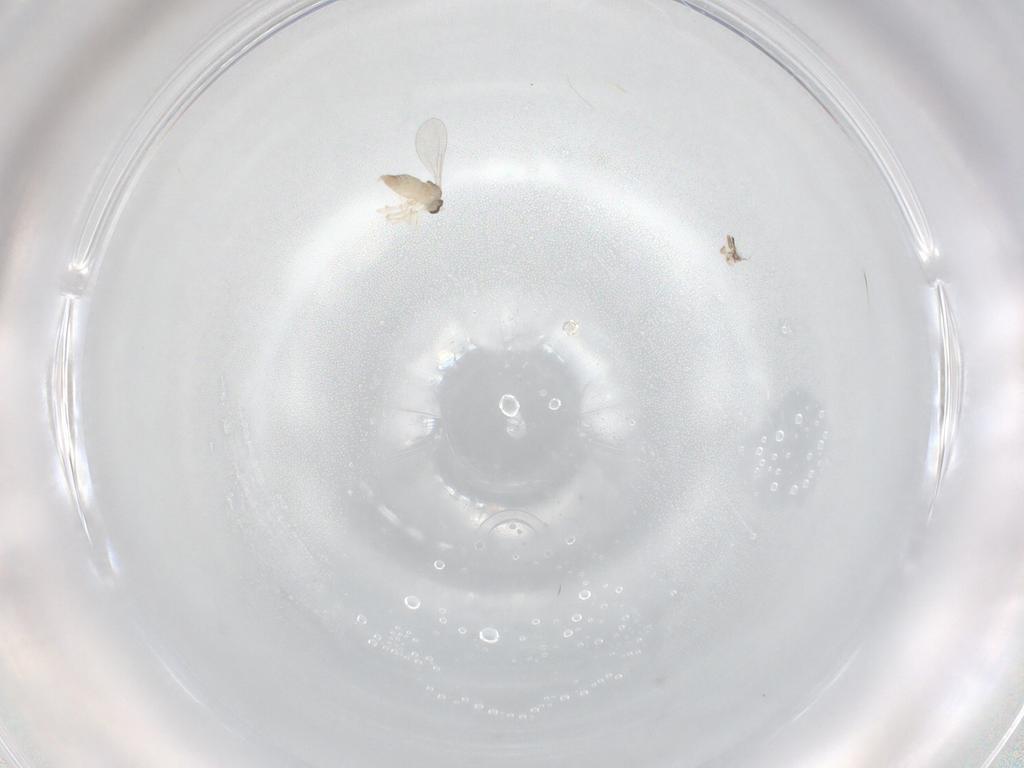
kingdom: Animalia
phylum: Arthropoda
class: Insecta
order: Diptera
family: Cecidomyiidae
